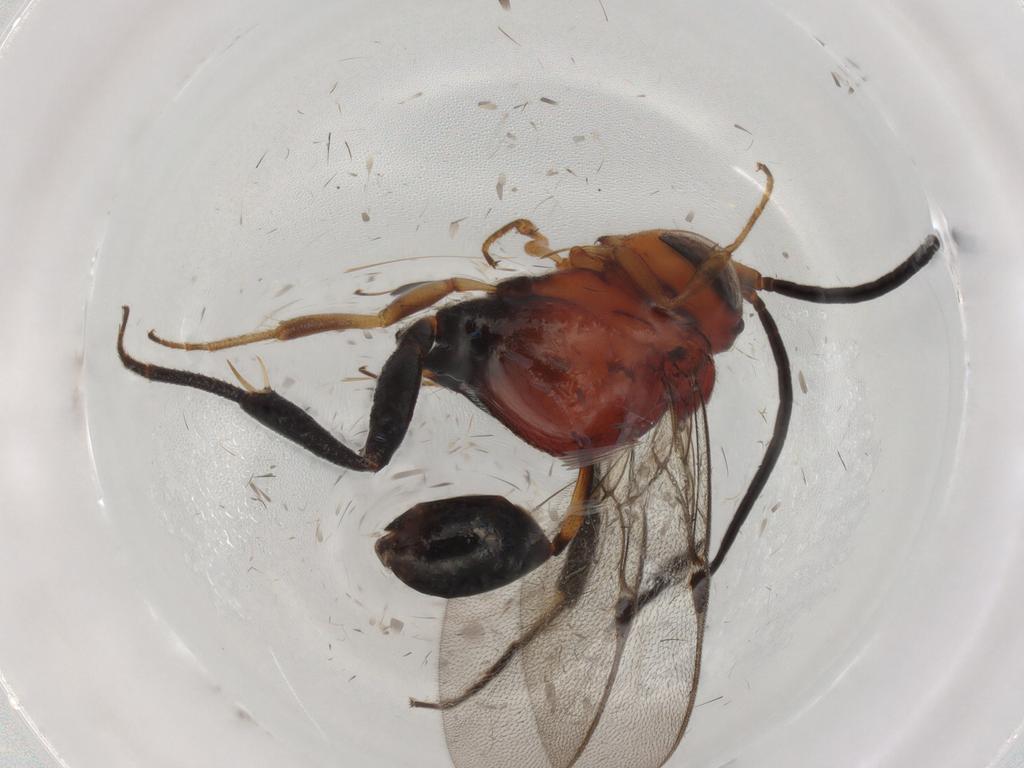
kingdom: Animalia
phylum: Arthropoda
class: Insecta
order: Hymenoptera
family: Evaniidae
